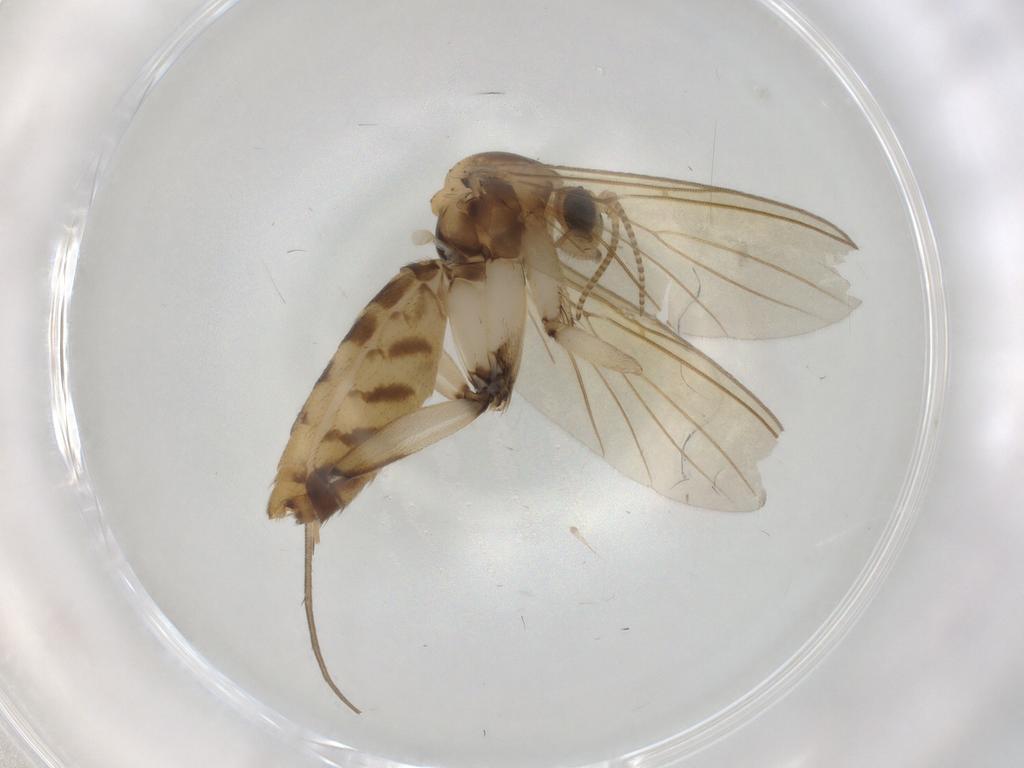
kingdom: Animalia
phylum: Arthropoda
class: Insecta
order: Diptera
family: Mycetophilidae
